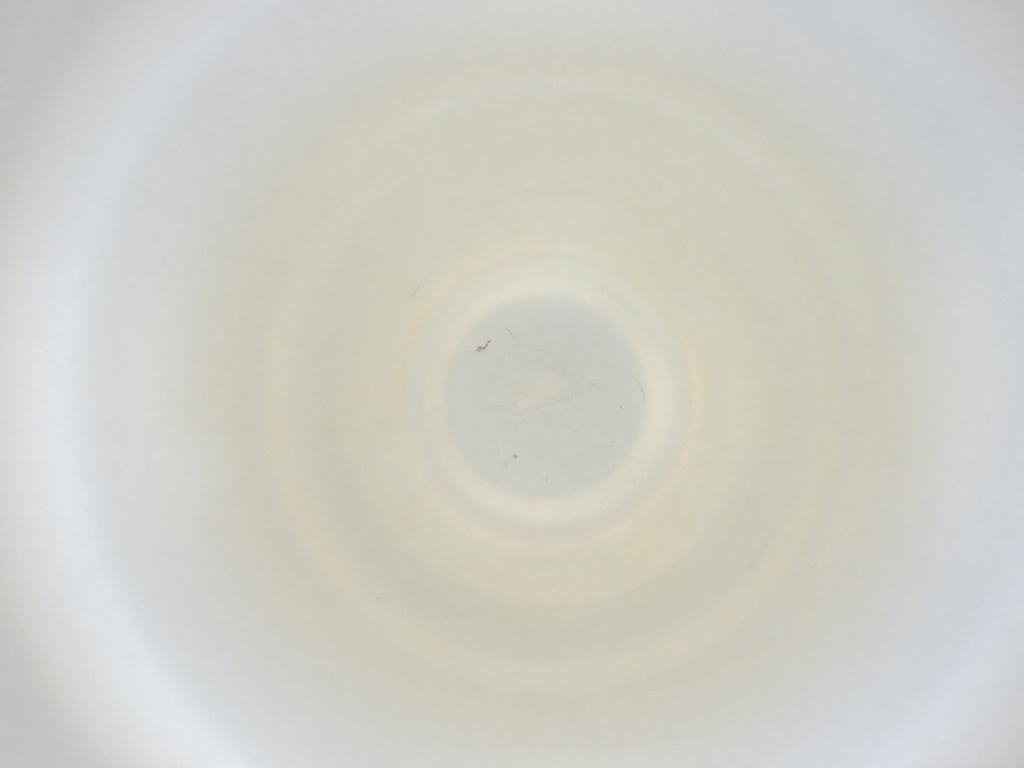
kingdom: Animalia
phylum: Arthropoda
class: Insecta
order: Diptera
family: Cecidomyiidae
